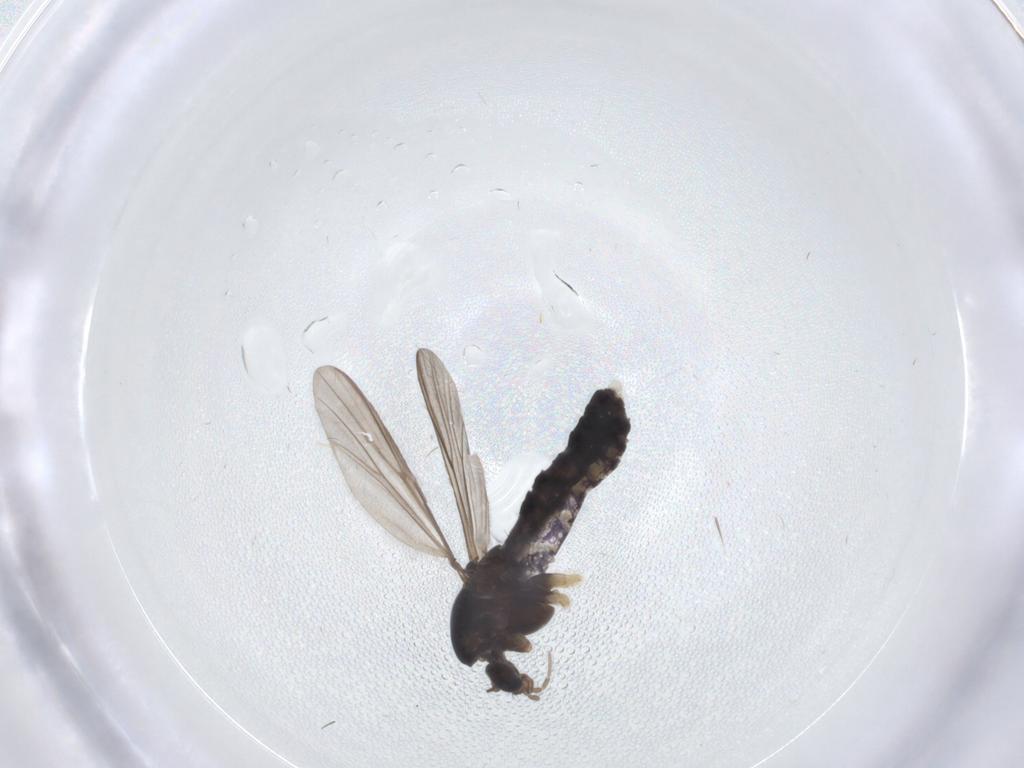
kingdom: Animalia
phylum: Arthropoda
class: Insecta
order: Diptera
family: Chironomidae
